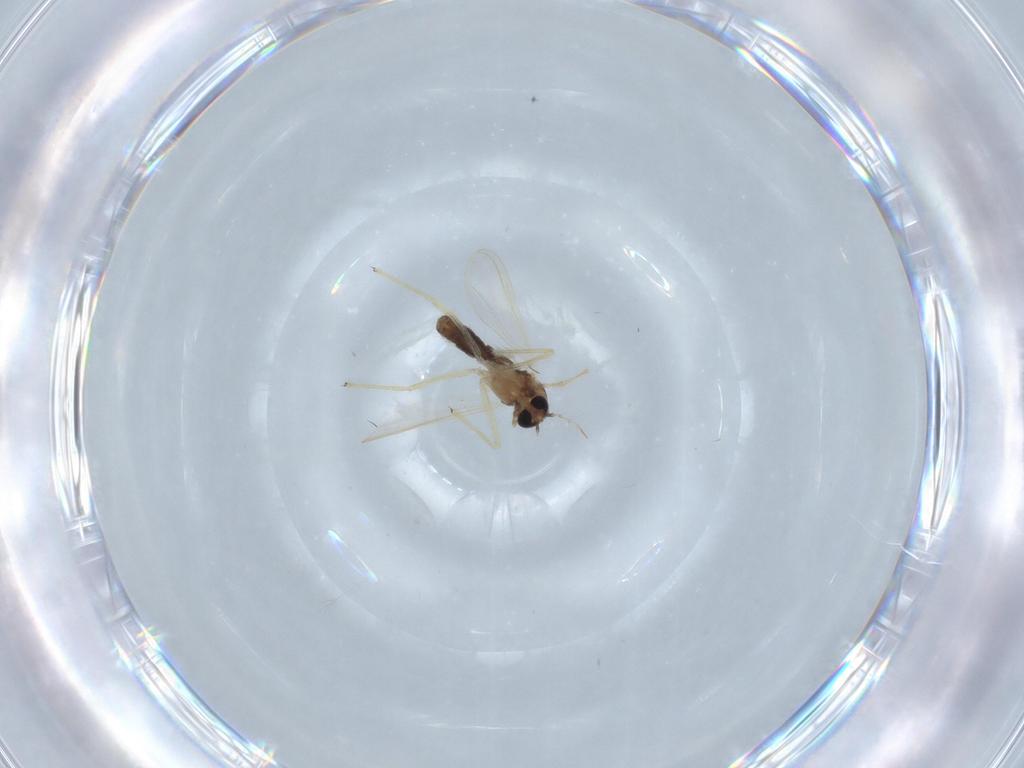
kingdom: Animalia
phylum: Arthropoda
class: Insecta
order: Diptera
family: Chironomidae
